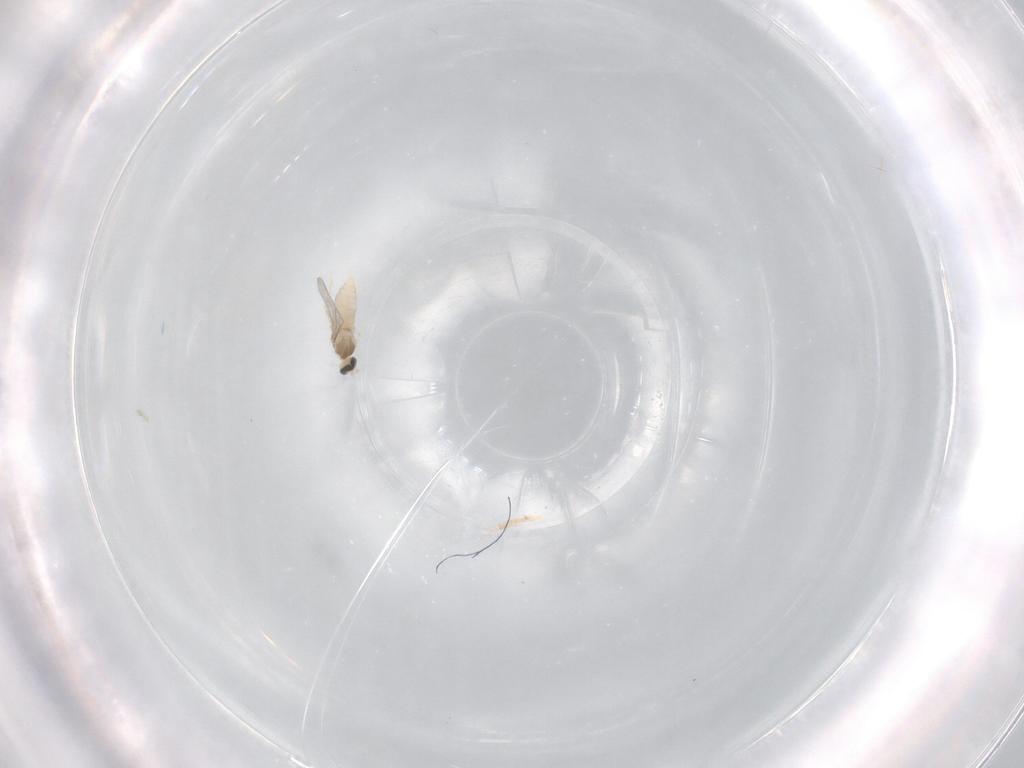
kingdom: Animalia
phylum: Arthropoda
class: Insecta
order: Diptera
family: Cecidomyiidae
